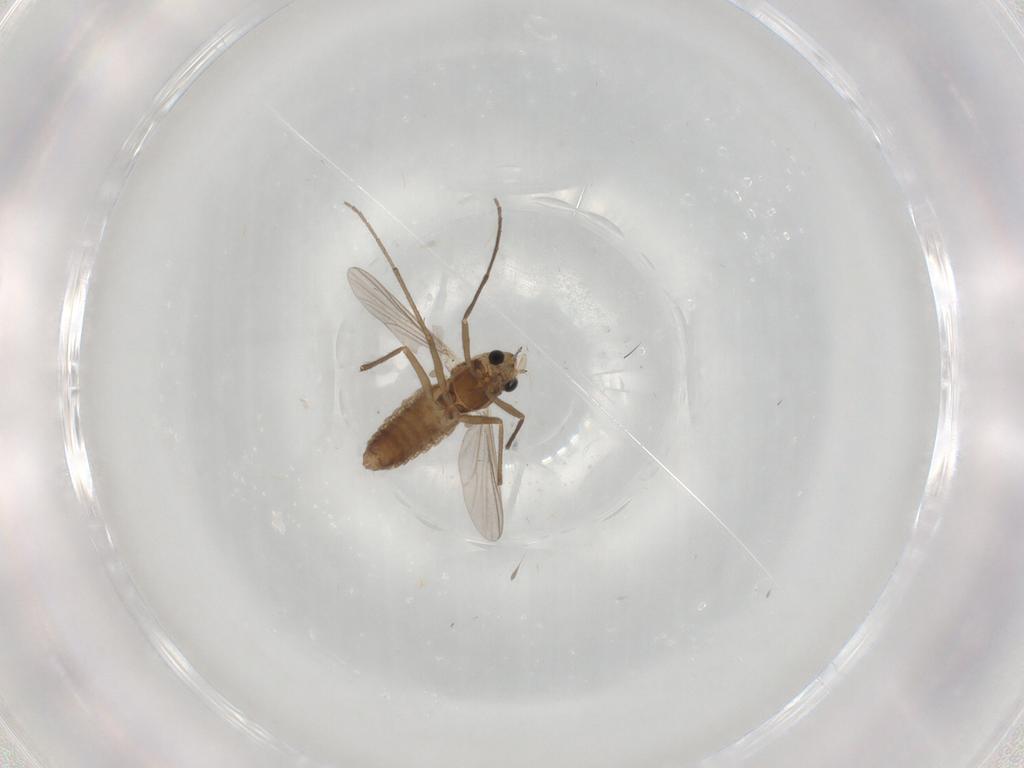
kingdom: Animalia
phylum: Arthropoda
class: Insecta
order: Diptera
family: Chironomidae
